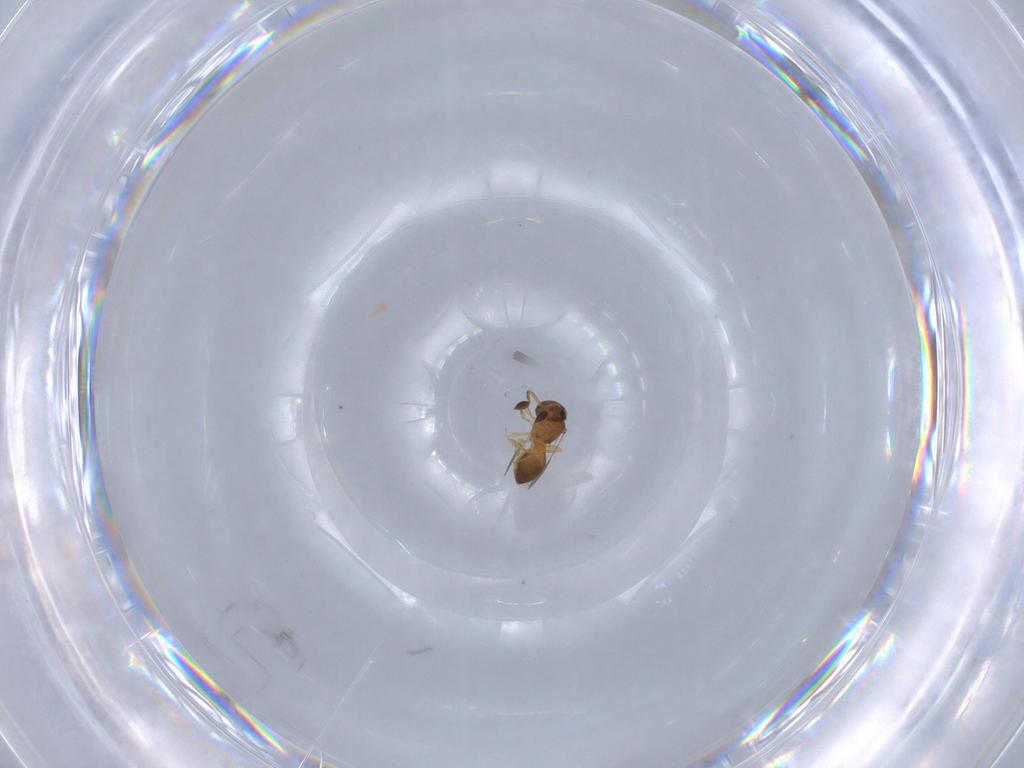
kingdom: Animalia
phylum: Arthropoda
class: Insecta
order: Hymenoptera
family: Scelionidae
